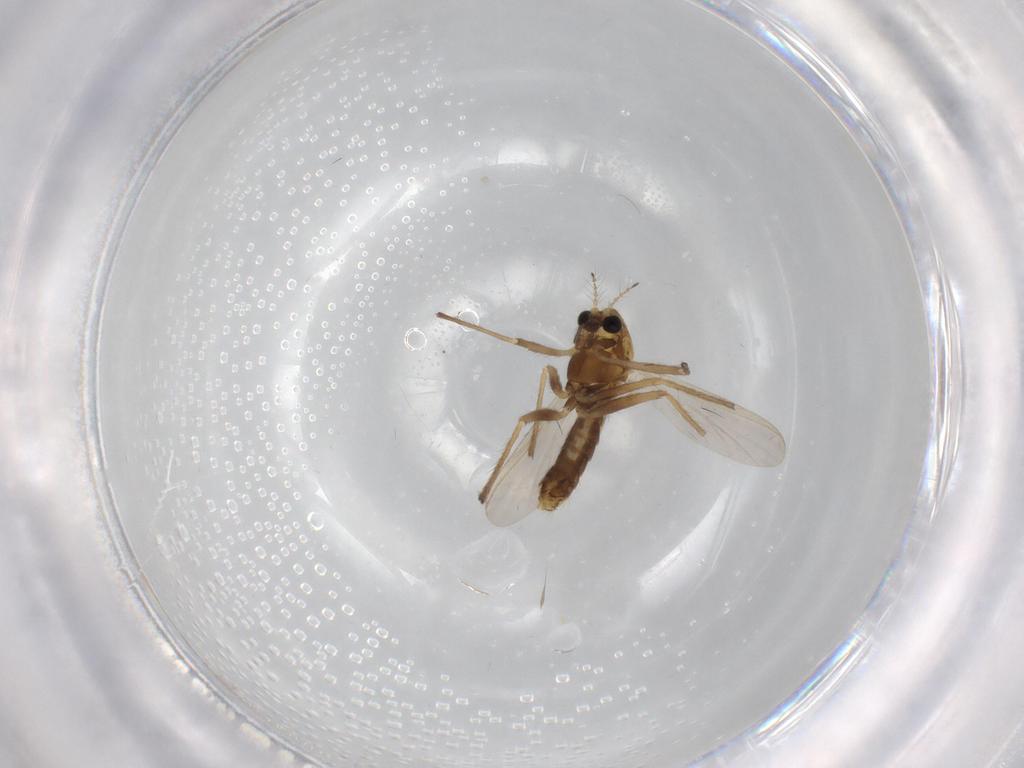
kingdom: Animalia
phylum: Arthropoda
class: Insecta
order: Diptera
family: Chironomidae
